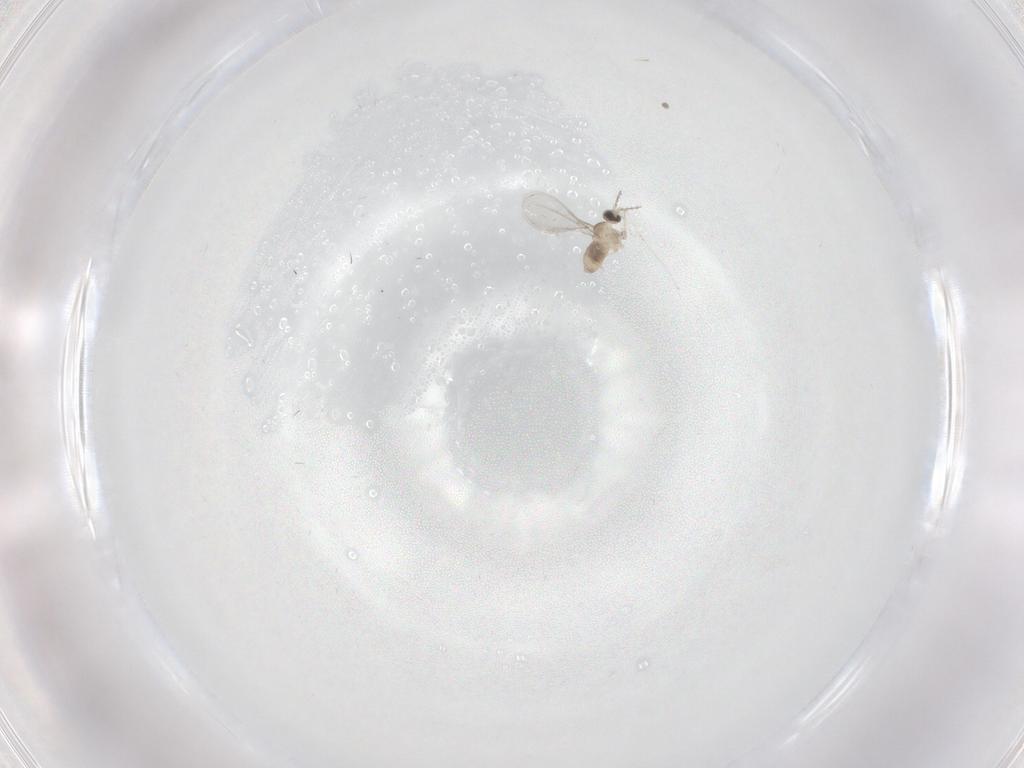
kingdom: Animalia
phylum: Arthropoda
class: Insecta
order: Diptera
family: Chironomidae
